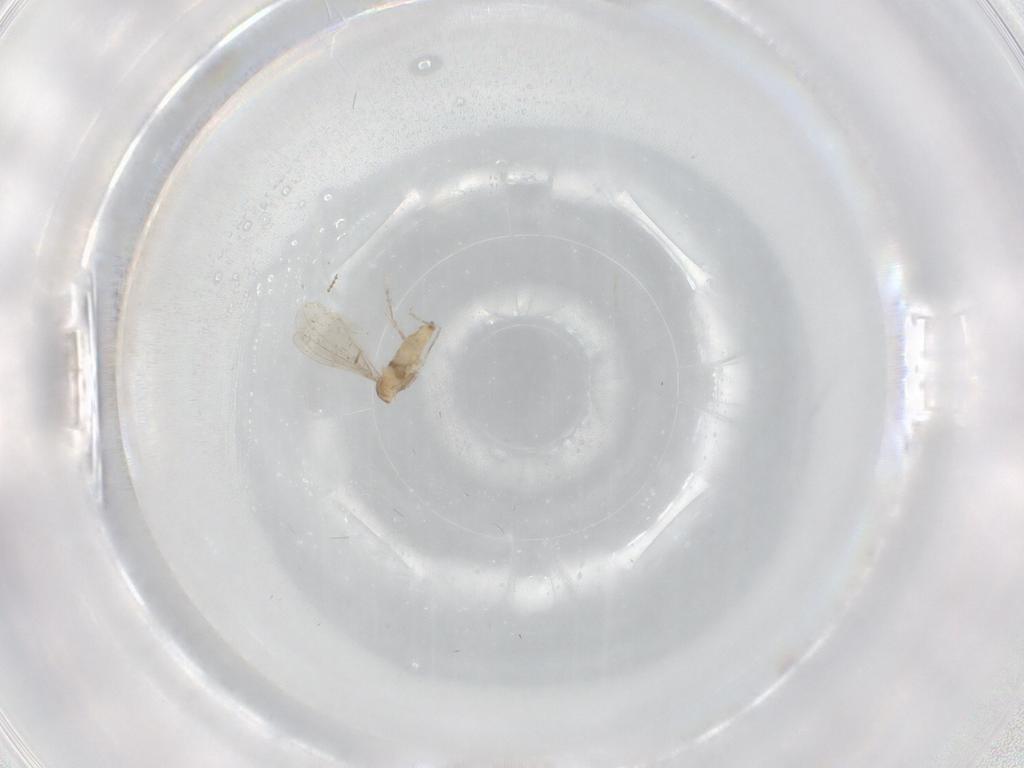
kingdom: Animalia
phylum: Arthropoda
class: Insecta
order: Diptera
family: Cecidomyiidae
